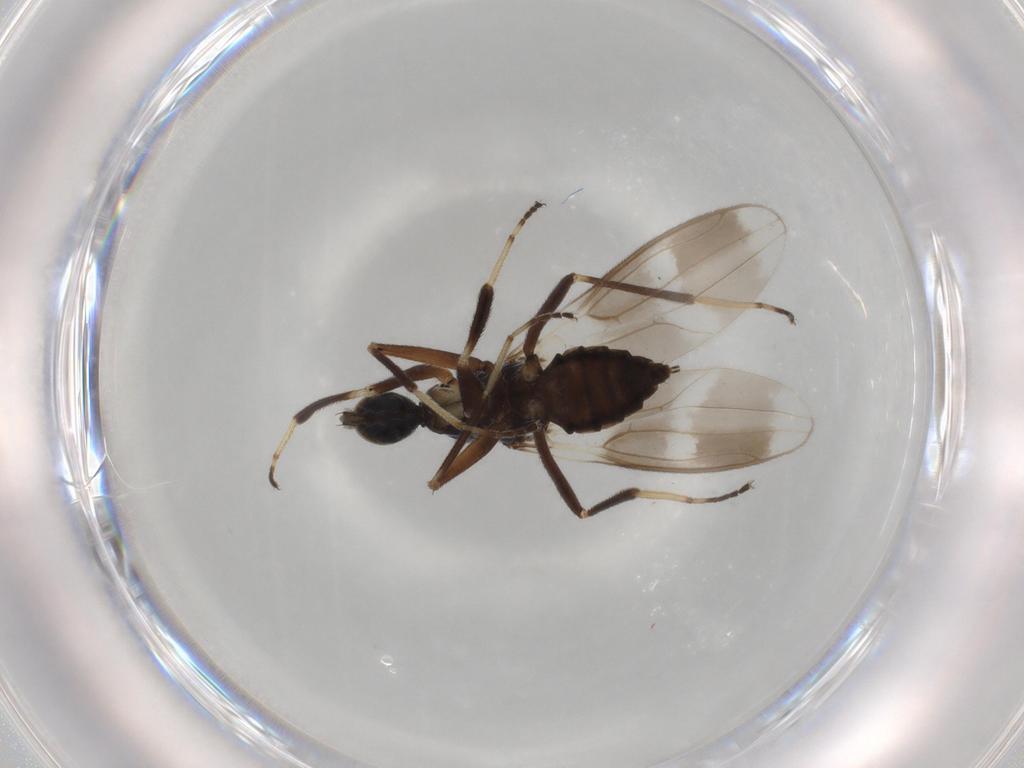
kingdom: Animalia
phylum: Arthropoda
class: Insecta
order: Diptera
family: Hybotidae
